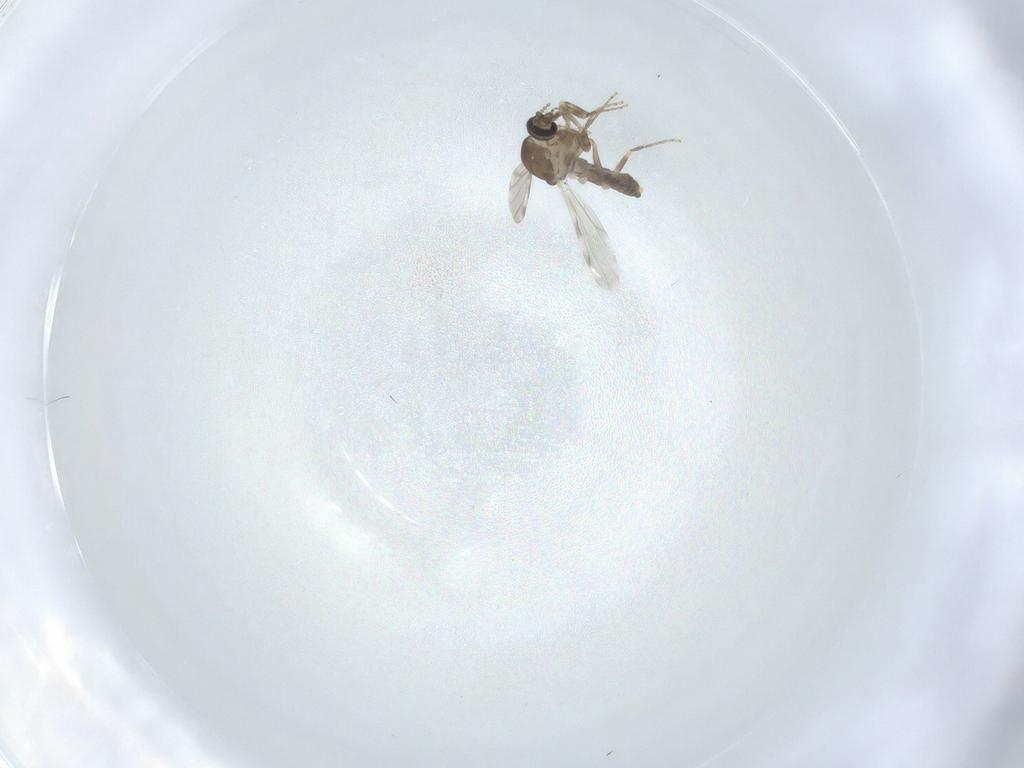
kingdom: Animalia
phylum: Arthropoda
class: Insecta
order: Diptera
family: Ceratopogonidae
